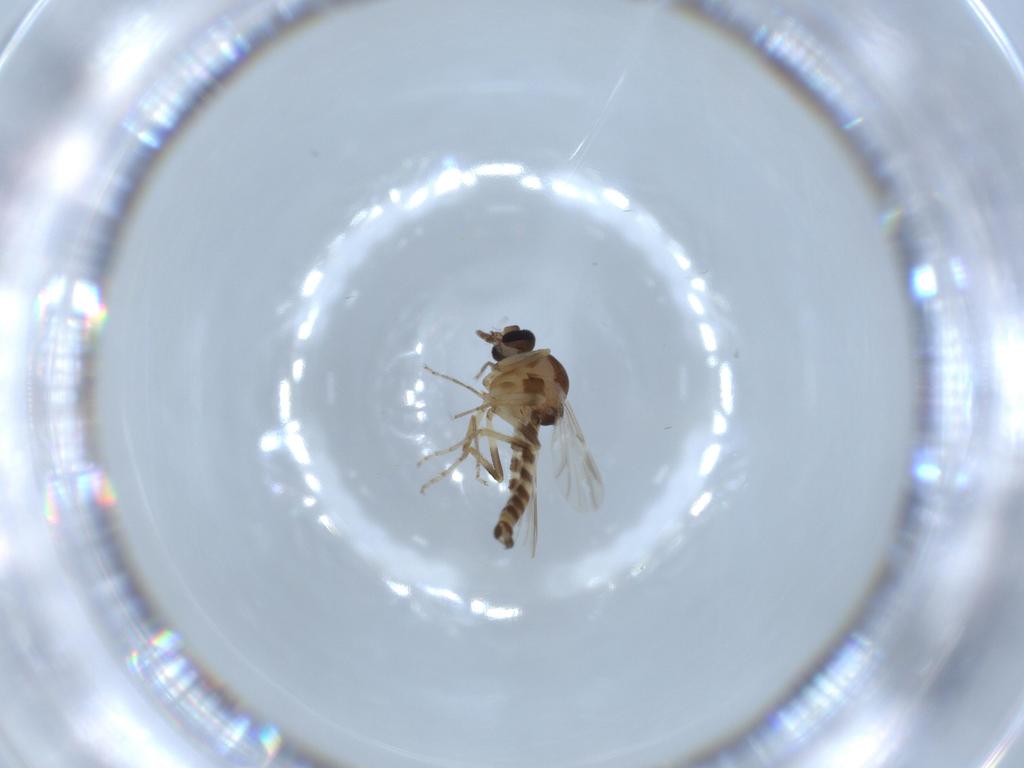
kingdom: Animalia
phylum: Arthropoda
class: Insecta
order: Diptera
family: Ceratopogonidae
